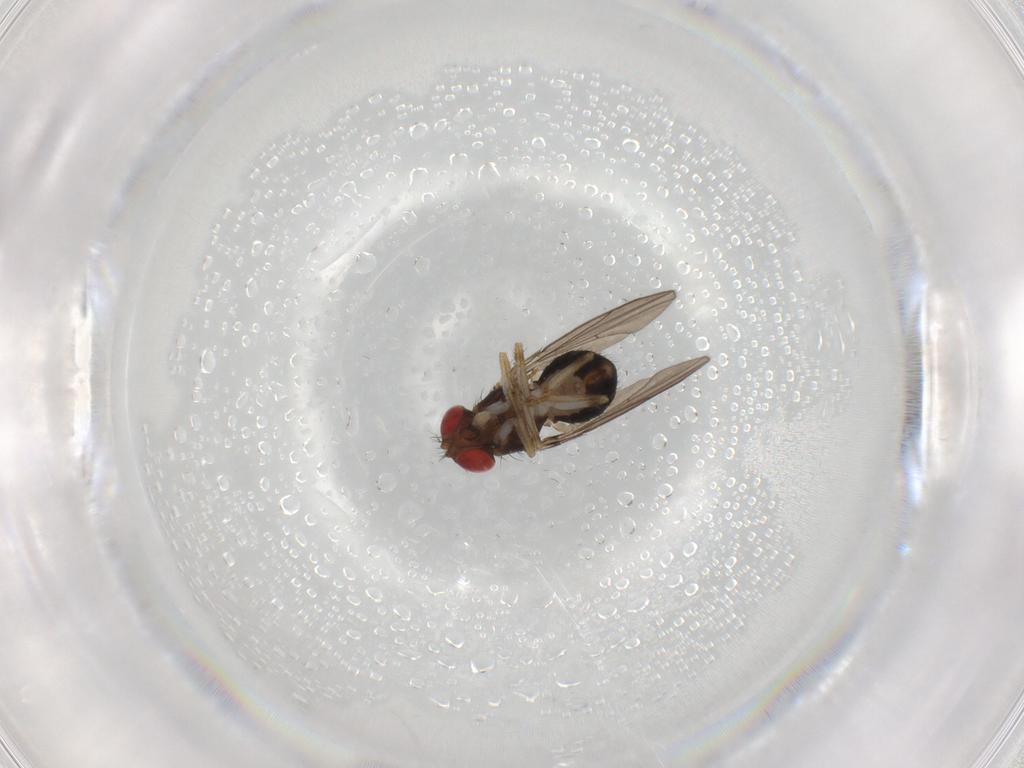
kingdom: Animalia
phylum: Arthropoda
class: Insecta
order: Diptera
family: Drosophilidae
